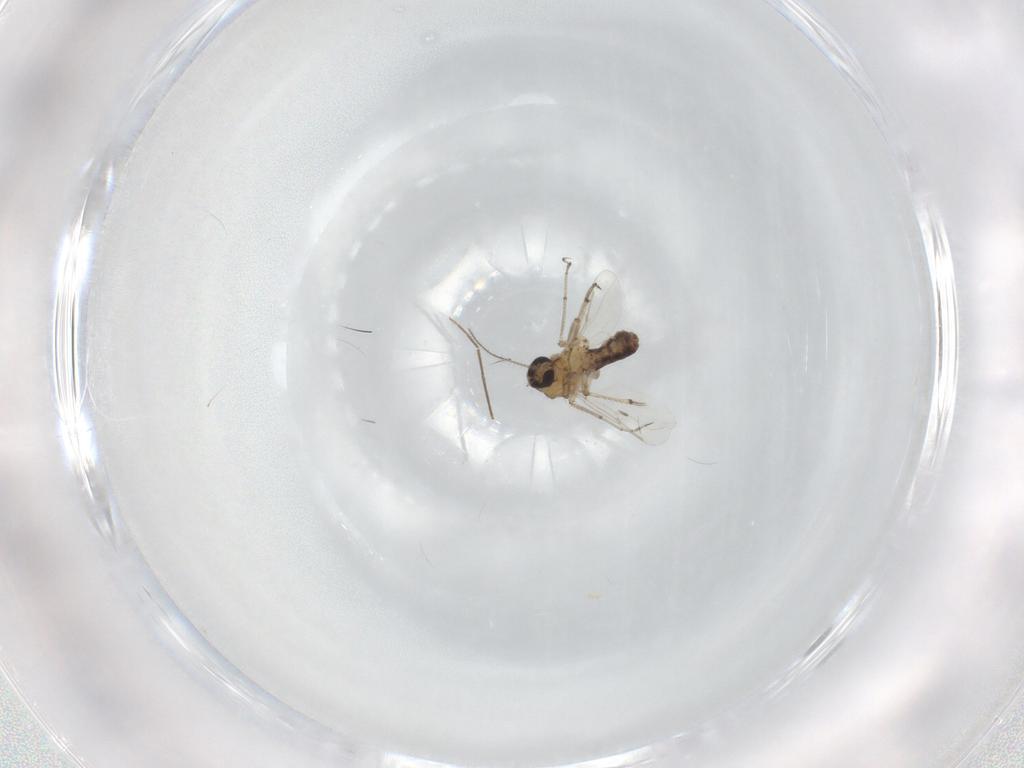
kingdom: Animalia
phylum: Arthropoda
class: Insecta
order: Diptera
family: Ceratopogonidae
